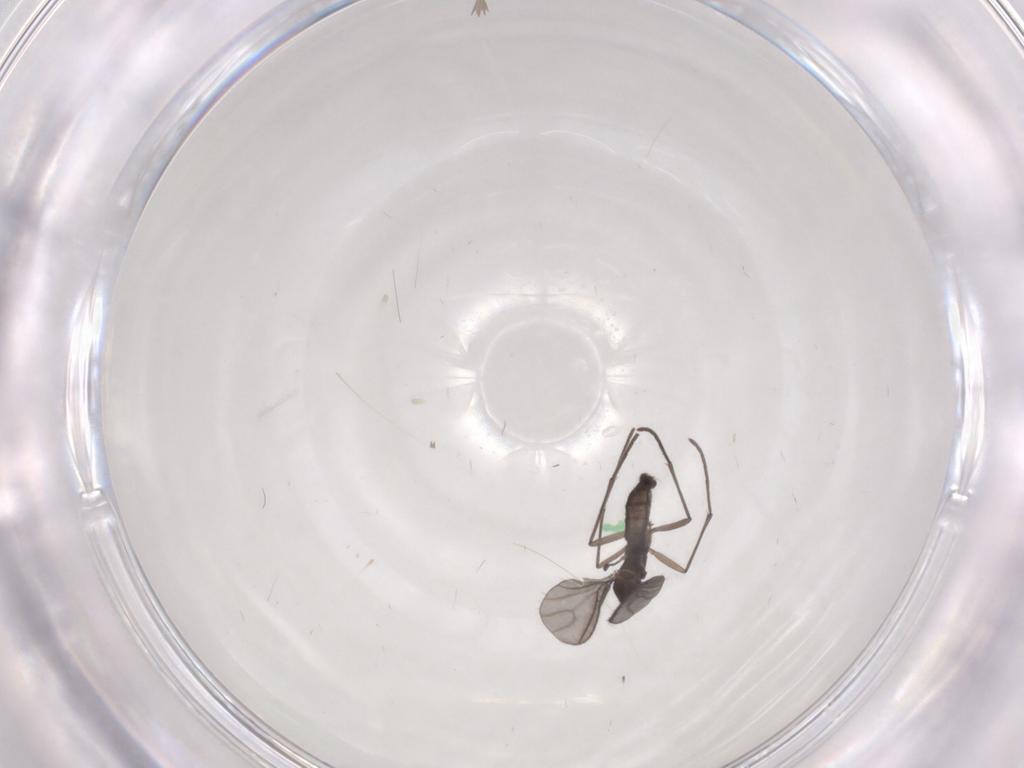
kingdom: Animalia
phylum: Arthropoda
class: Insecta
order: Diptera
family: Sciaridae
